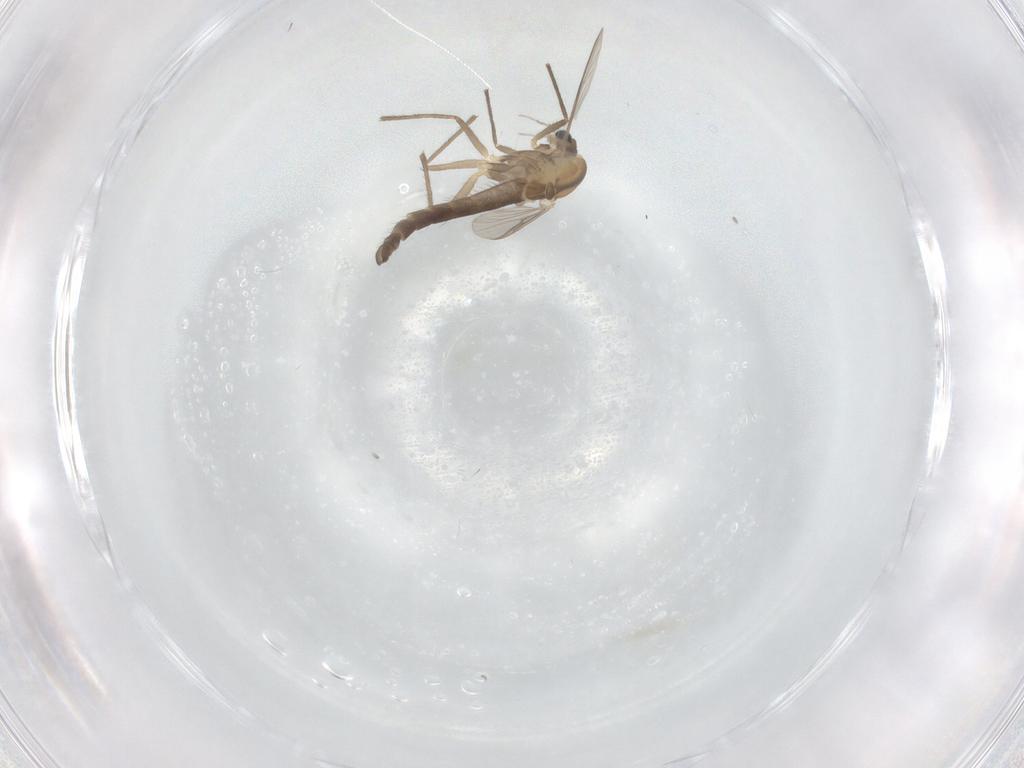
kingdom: Animalia
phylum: Arthropoda
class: Insecta
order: Diptera
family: Chironomidae
